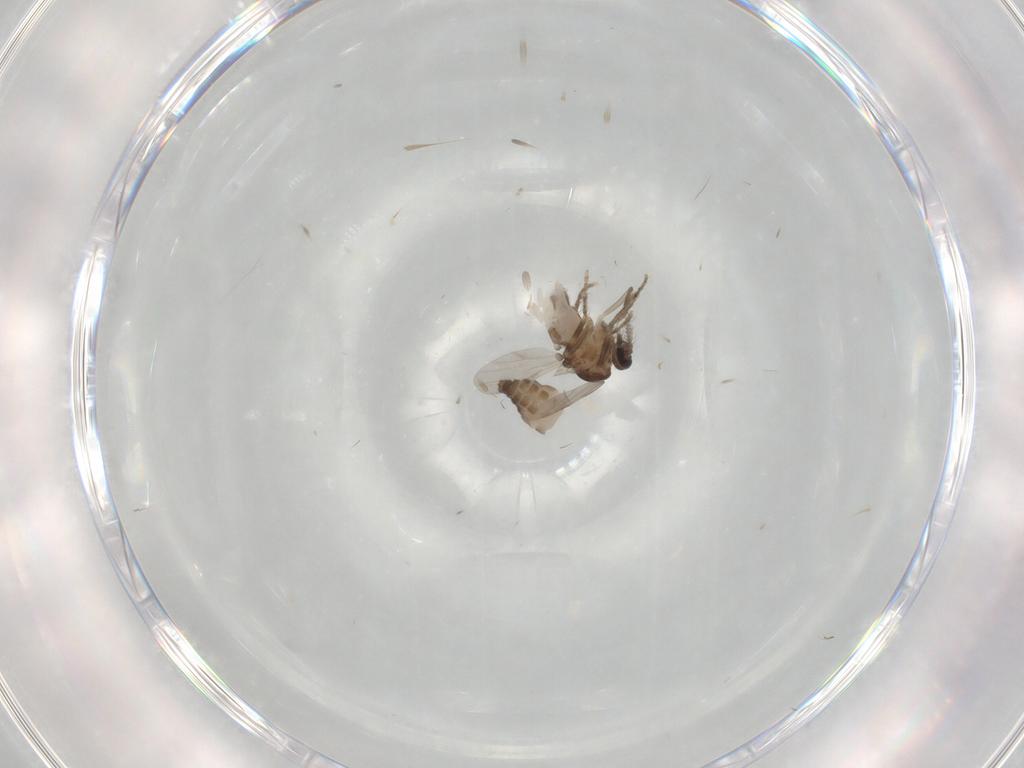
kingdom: Animalia
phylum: Arthropoda
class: Insecta
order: Diptera
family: Ceratopogonidae
